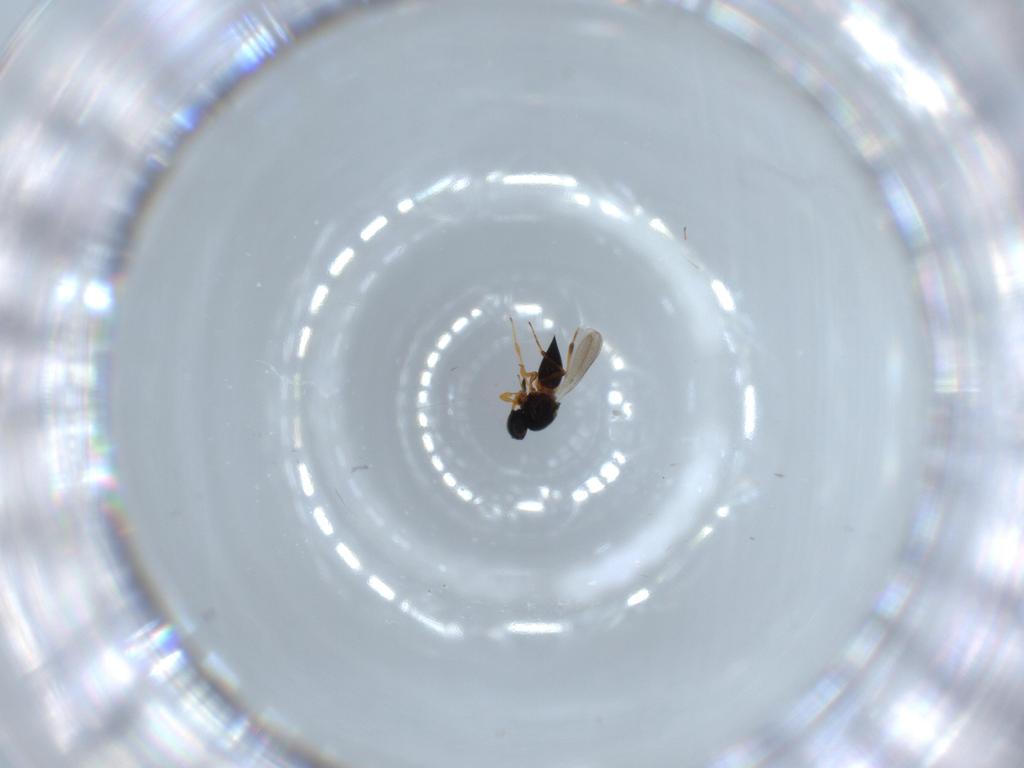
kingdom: Animalia
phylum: Arthropoda
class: Insecta
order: Hymenoptera
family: Platygastridae
